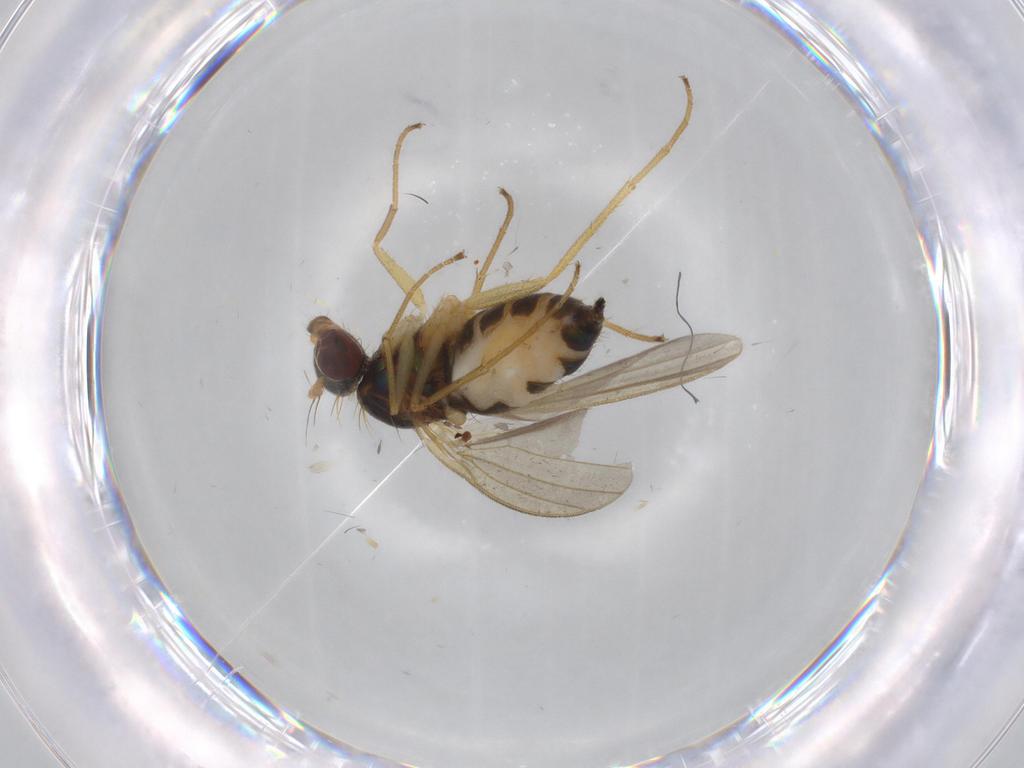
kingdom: Animalia
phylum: Arthropoda
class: Insecta
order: Diptera
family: Dolichopodidae
